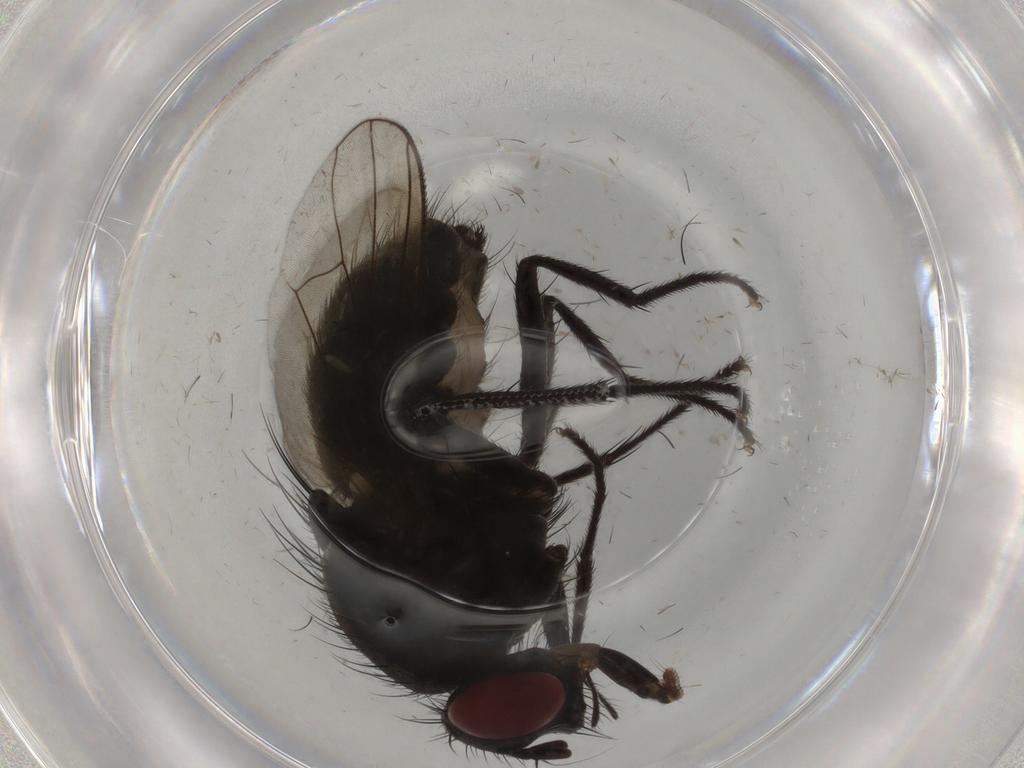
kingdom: Animalia
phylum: Arthropoda
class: Insecta
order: Diptera
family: Muscidae
